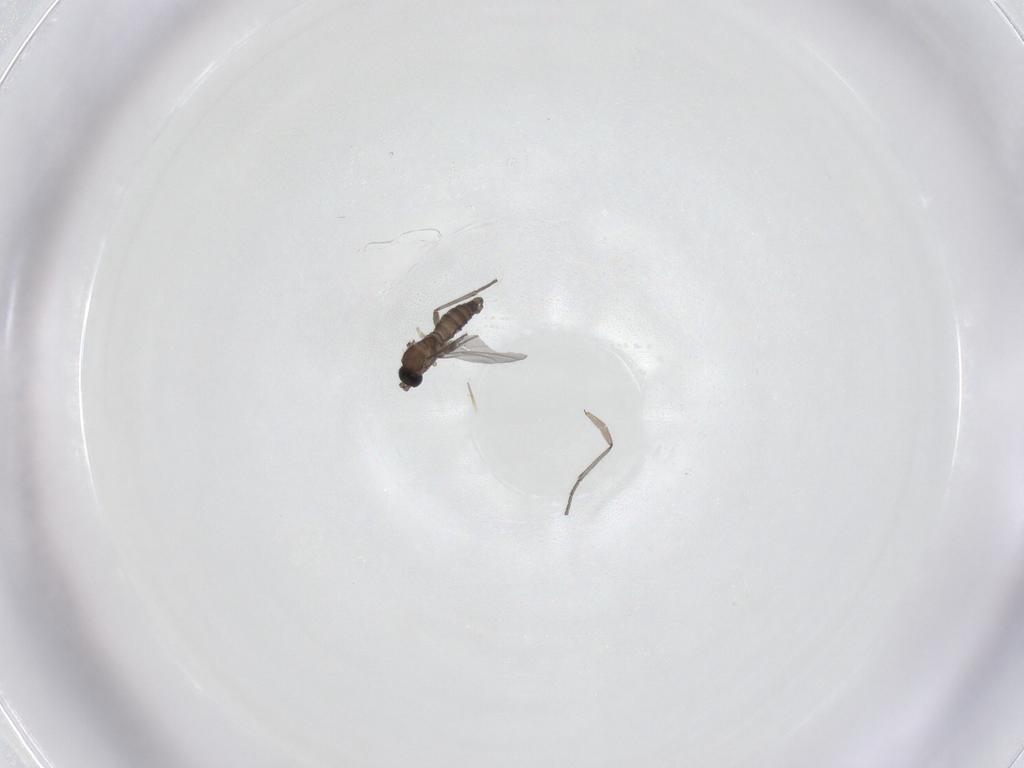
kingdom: Animalia
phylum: Arthropoda
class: Insecta
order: Diptera
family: Sciaridae
